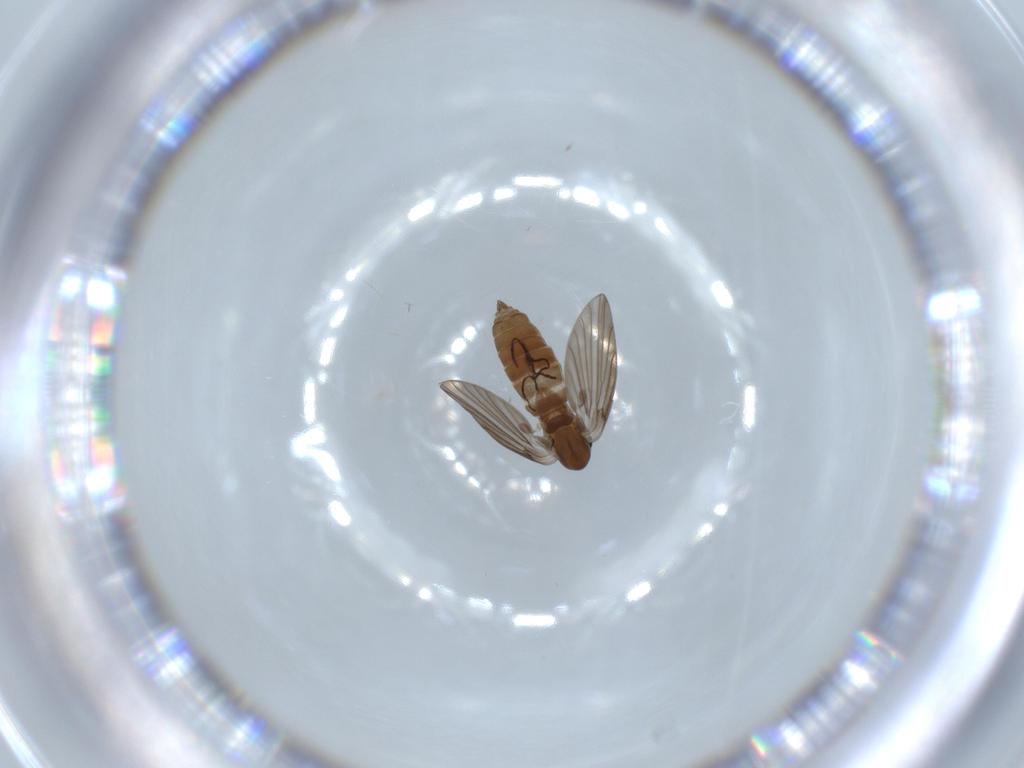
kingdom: Animalia
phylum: Arthropoda
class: Insecta
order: Diptera
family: Psychodidae
